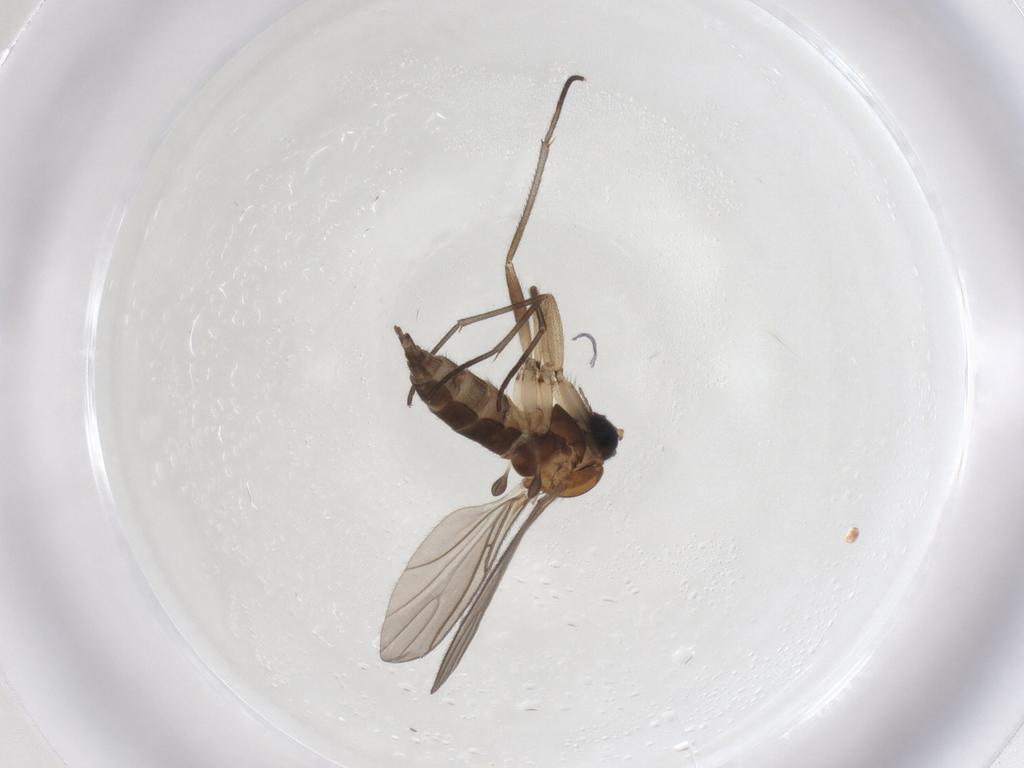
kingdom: Animalia
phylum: Arthropoda
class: Insecta
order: Diptera
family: Sciaridae
